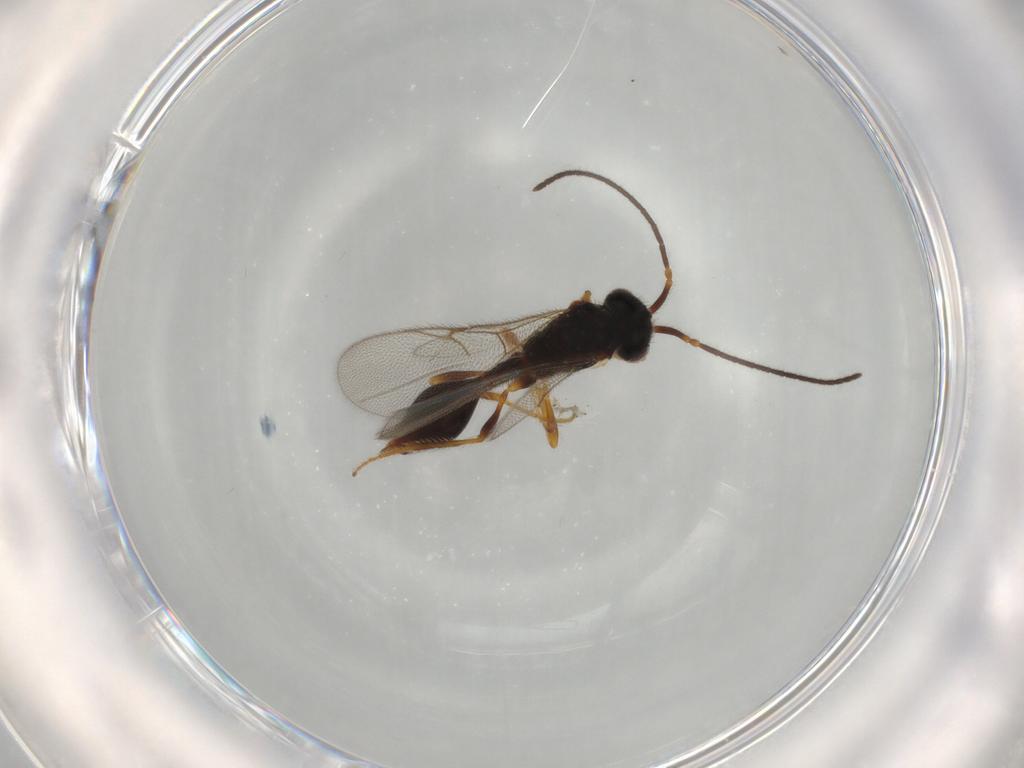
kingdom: Animalia
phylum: Arthropoda
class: Insecta
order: Hymenoptera
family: Diapriidae
